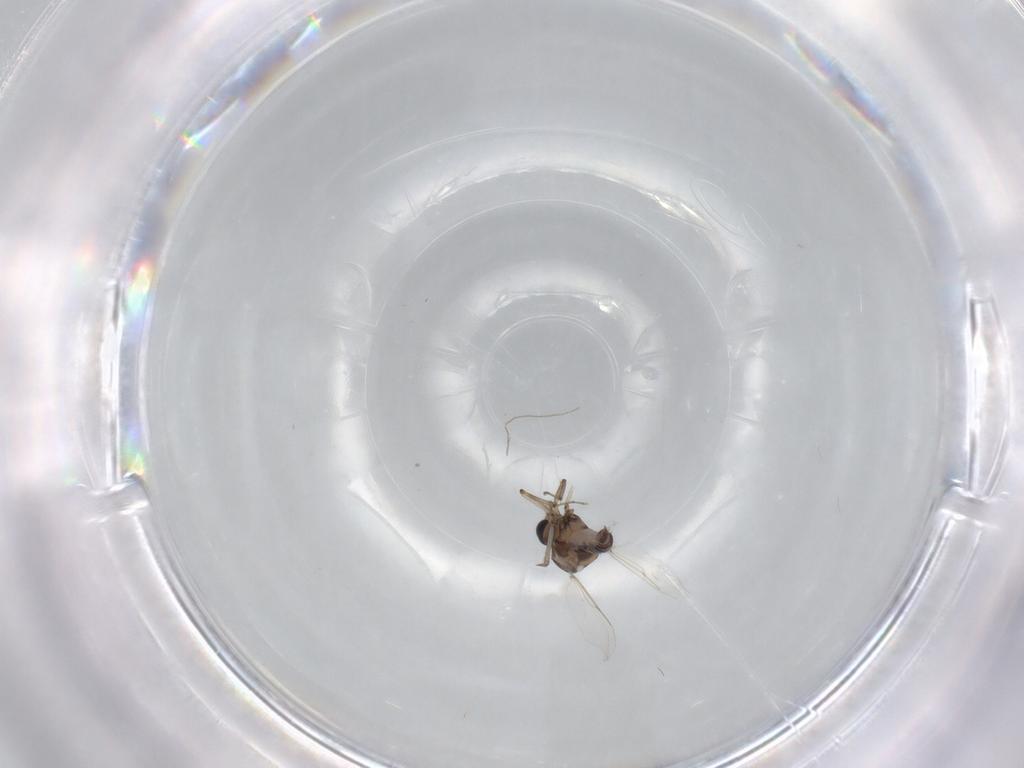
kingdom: Animalia
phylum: Arthropoda
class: Insecta
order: Diptera
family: Ceratopogonidae
